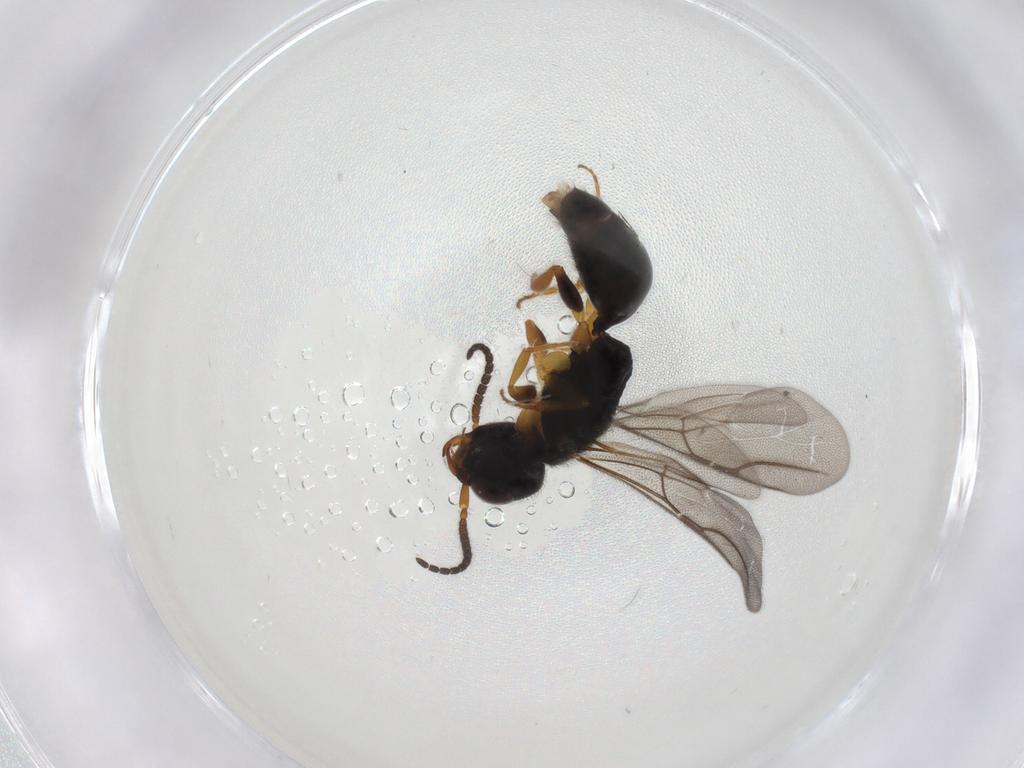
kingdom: Animalia
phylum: Arthropoda
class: Insecta
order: Hymenoptera
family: Bethylidae
